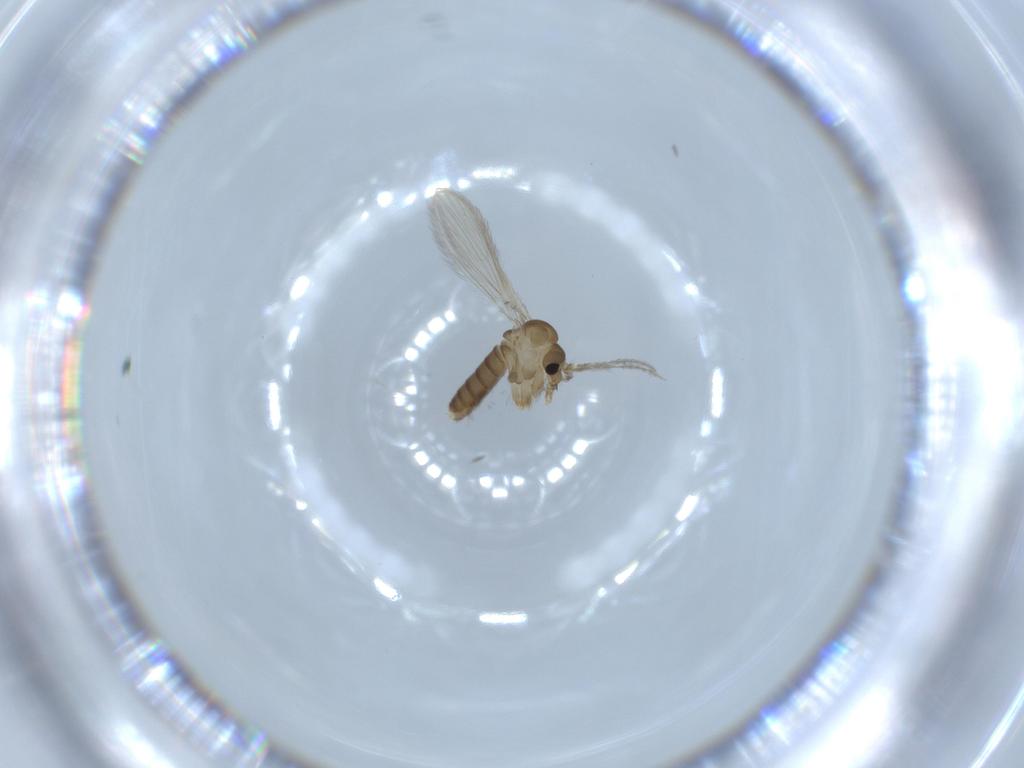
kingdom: Animalia
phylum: Arthropoda
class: Insecta
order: Diptera
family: Psychodidae
